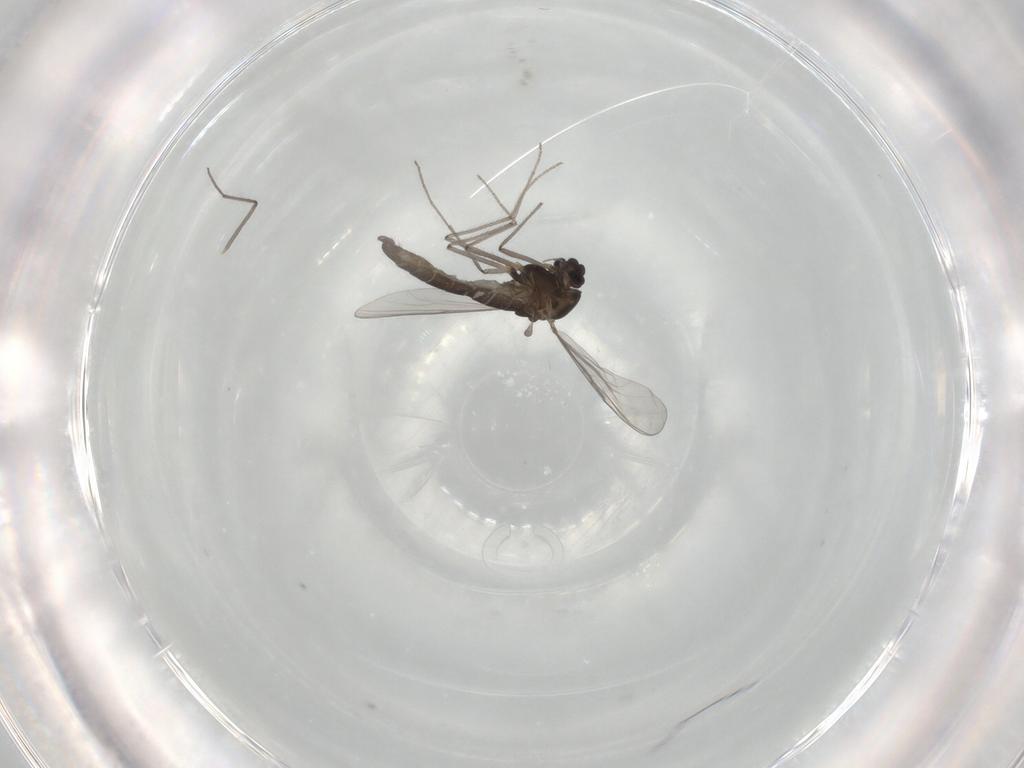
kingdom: Animalia
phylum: Arthropoda
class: Insecta
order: Diptera
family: Chironomidae
